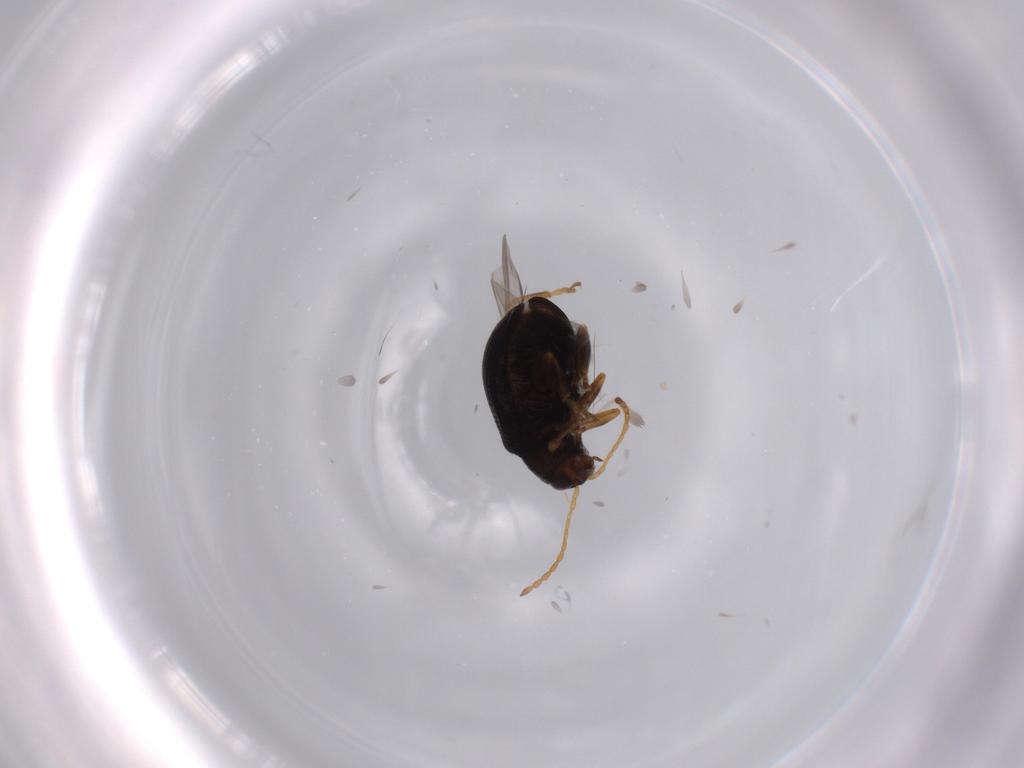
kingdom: Animalia
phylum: Arthropoda
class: Insecta
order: Coleoptera
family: Chrysomelidae
